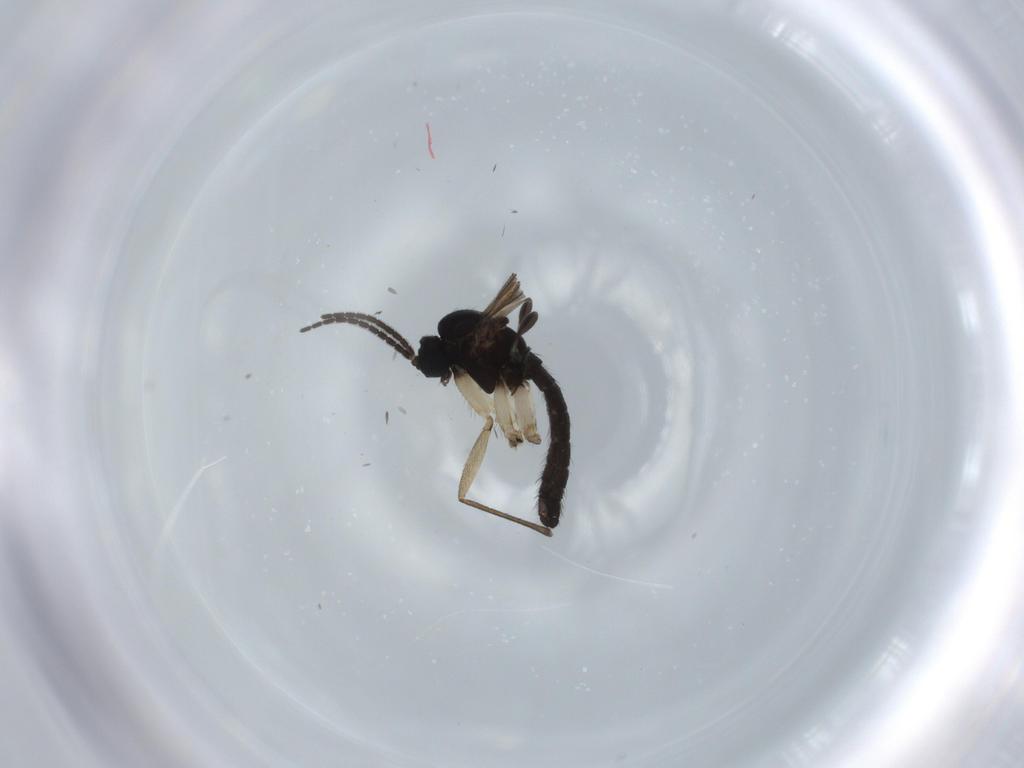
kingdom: Animalia
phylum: Arthropoda
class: Insecta
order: Diptera
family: Sciaridae
